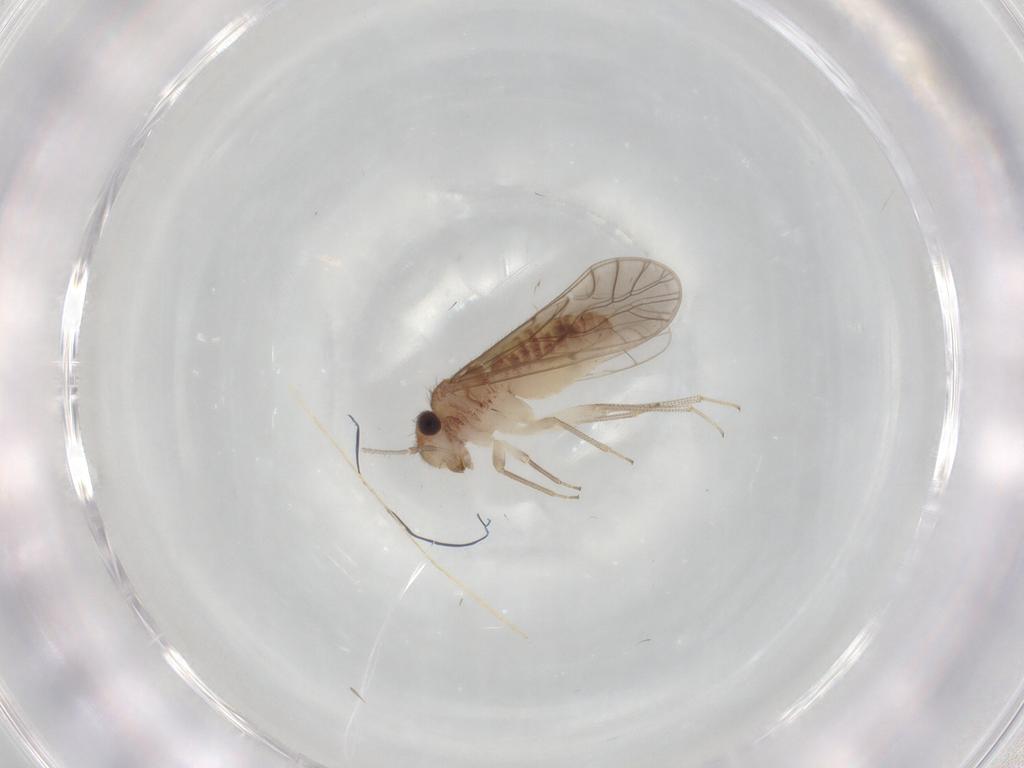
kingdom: Animalia
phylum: Arthropoda
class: Insecta
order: Psocodea
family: Caeciliusidae
